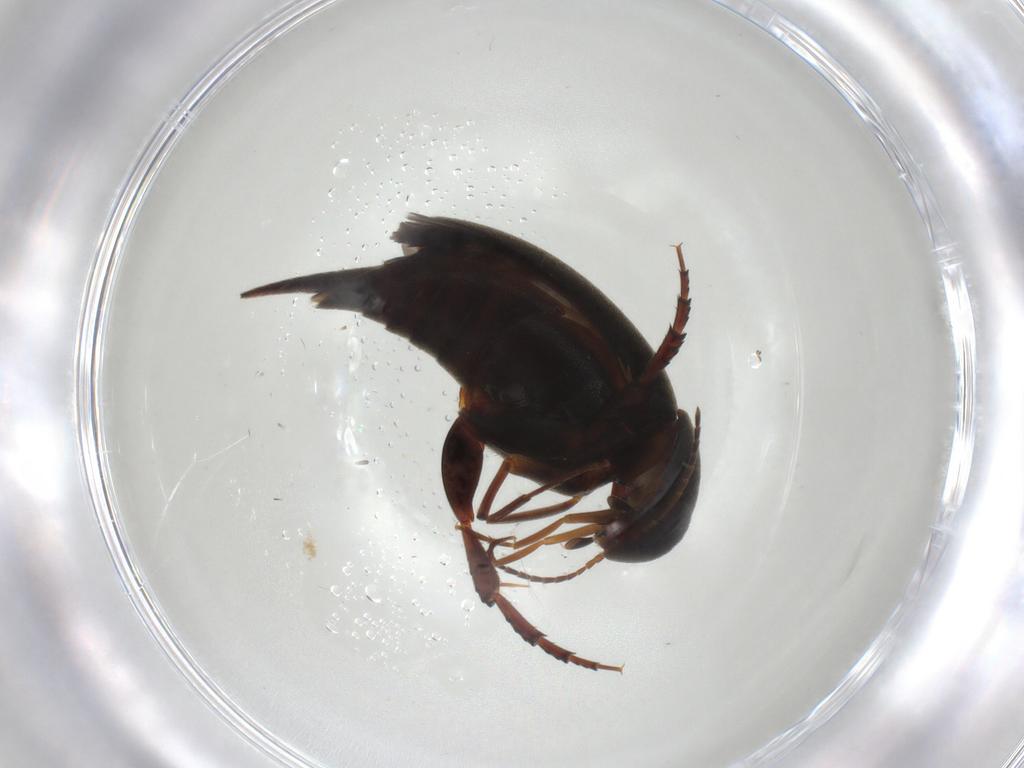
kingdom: Animalia
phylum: Arthropoda
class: Insecta
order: Coleoptera
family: Mordellidae
